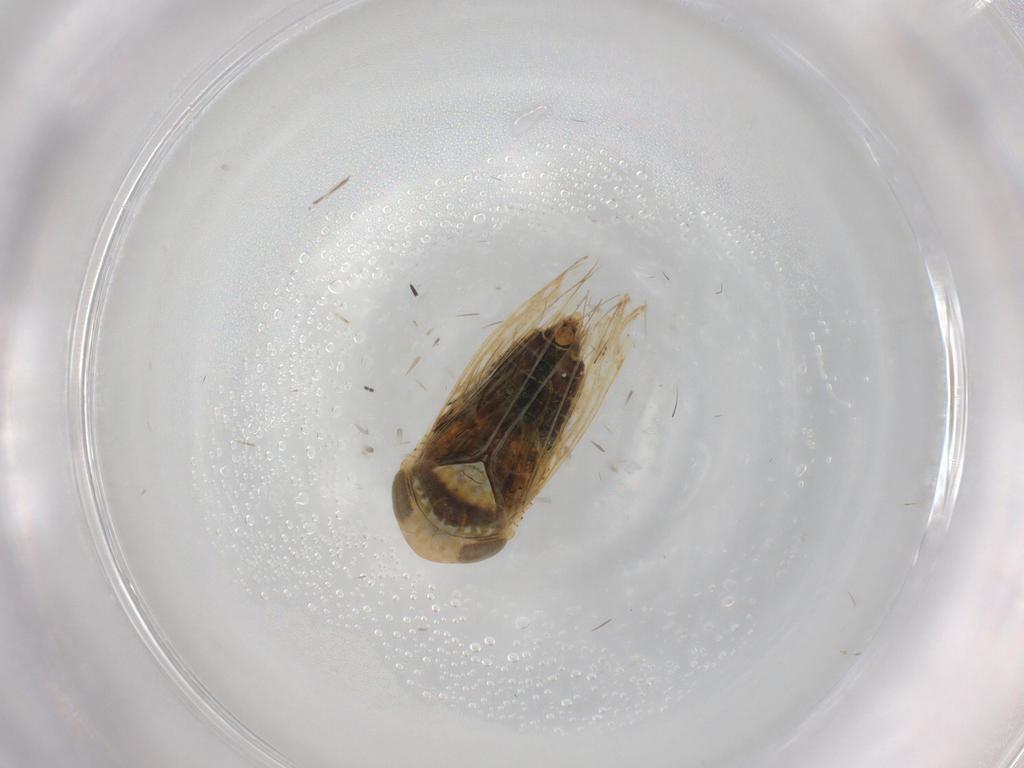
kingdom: Animalia
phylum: Arthropoda
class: Insecta
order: Hemiptera
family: Cicadellidae
